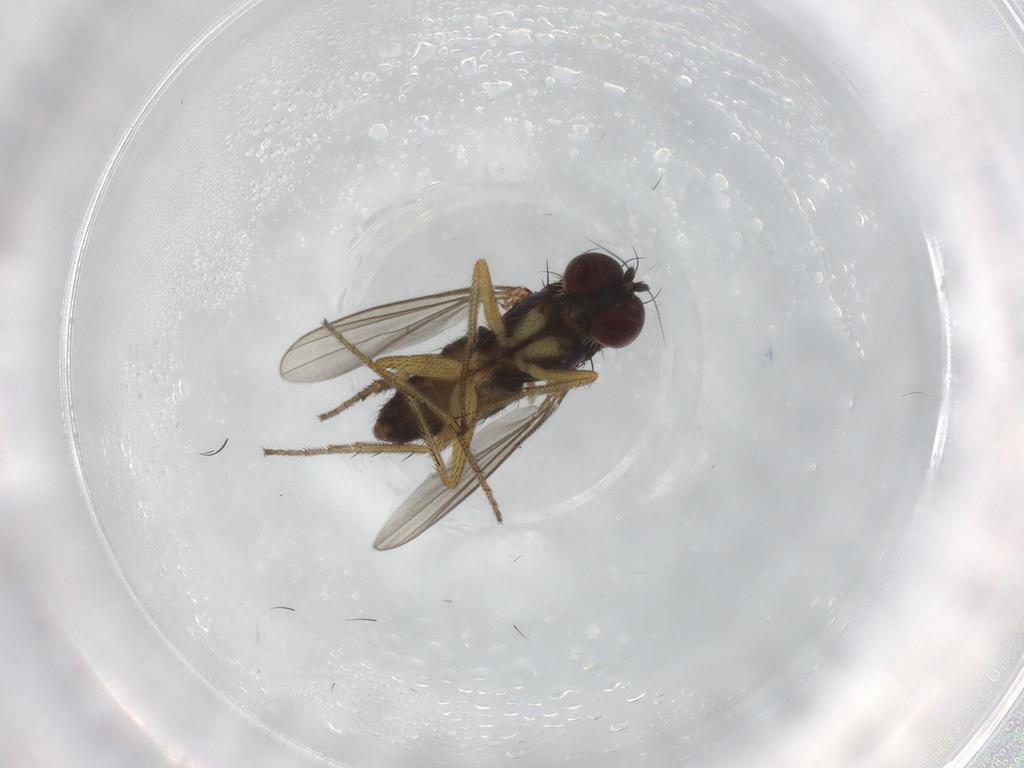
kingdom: Animalia
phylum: Arthropoda
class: Insecta
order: Diptera
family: Dolichopodidae
